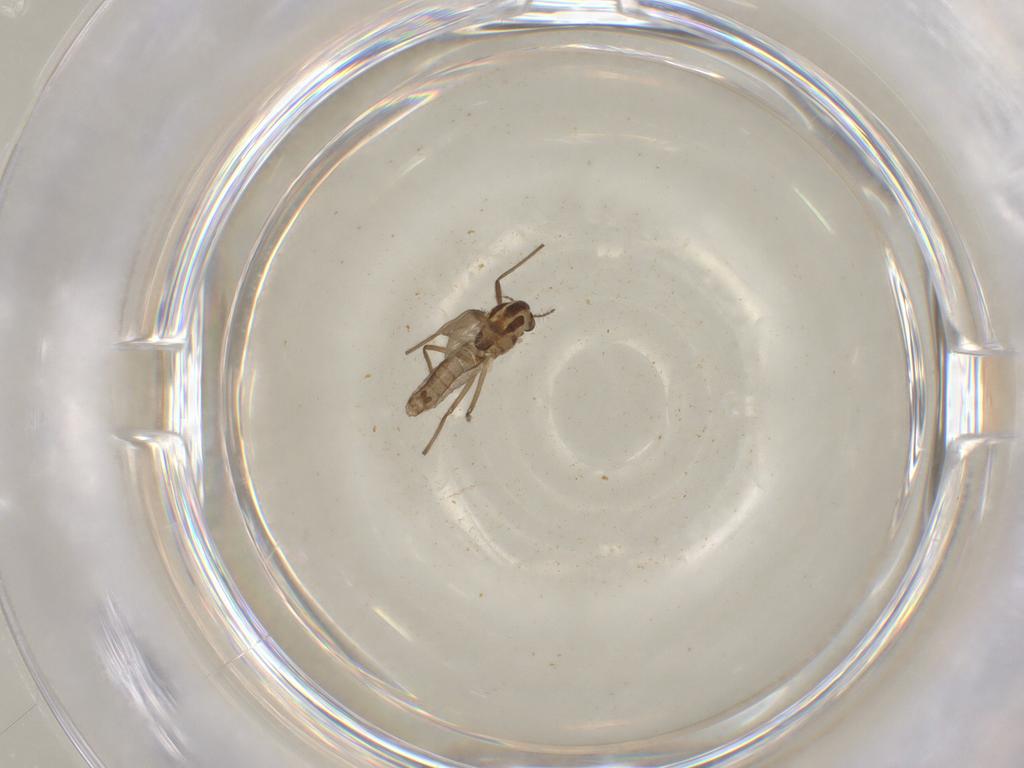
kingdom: Animalia
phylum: Arthropoda
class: Insecta
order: Diptera
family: Chironomidae
